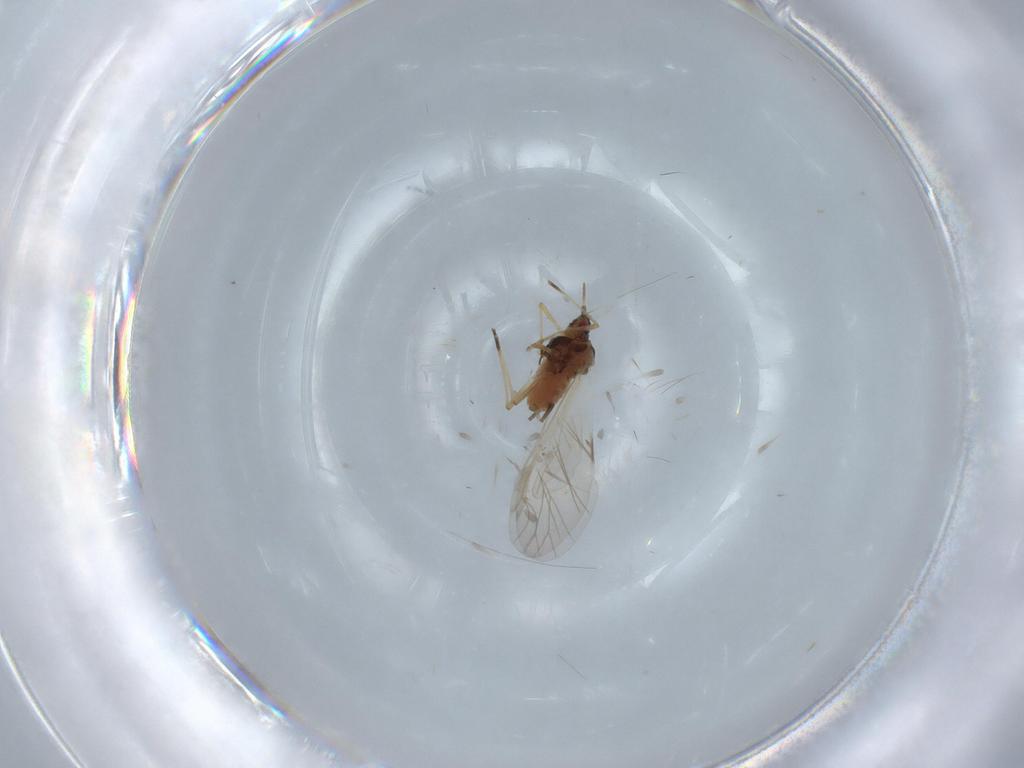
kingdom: Animalia
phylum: Arthropoda
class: Insecta
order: Hemiptera
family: Aphididae
